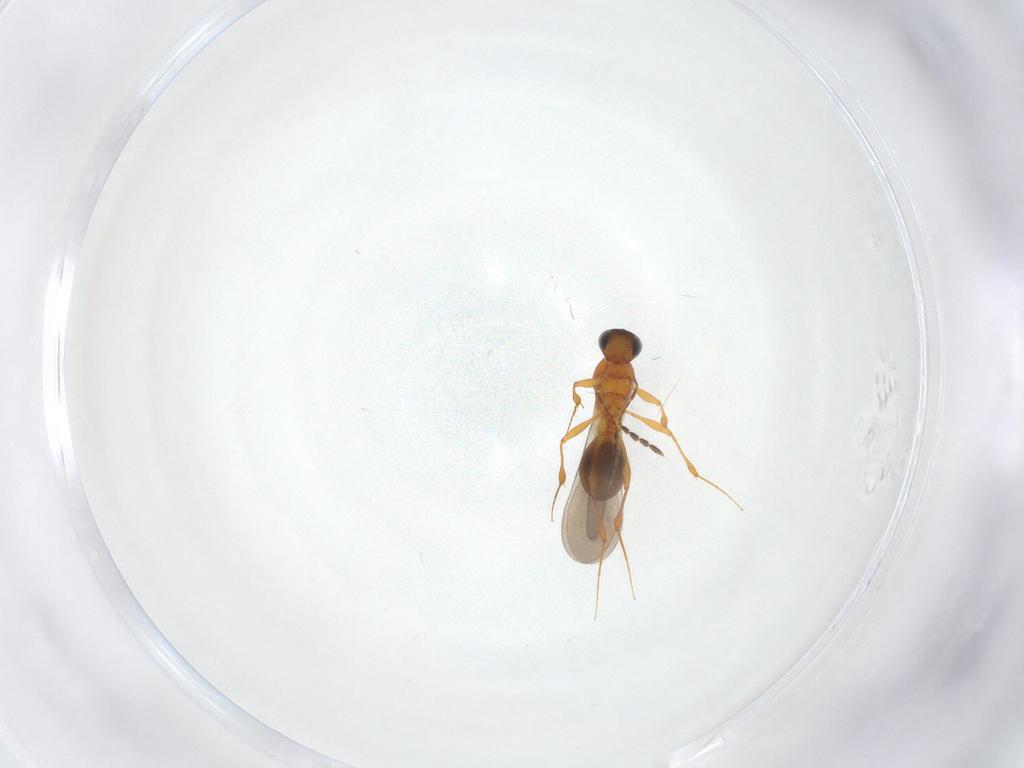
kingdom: Animalia
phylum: Arthropoda
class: Insecta
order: Hymenoptera
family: Platygastridae
